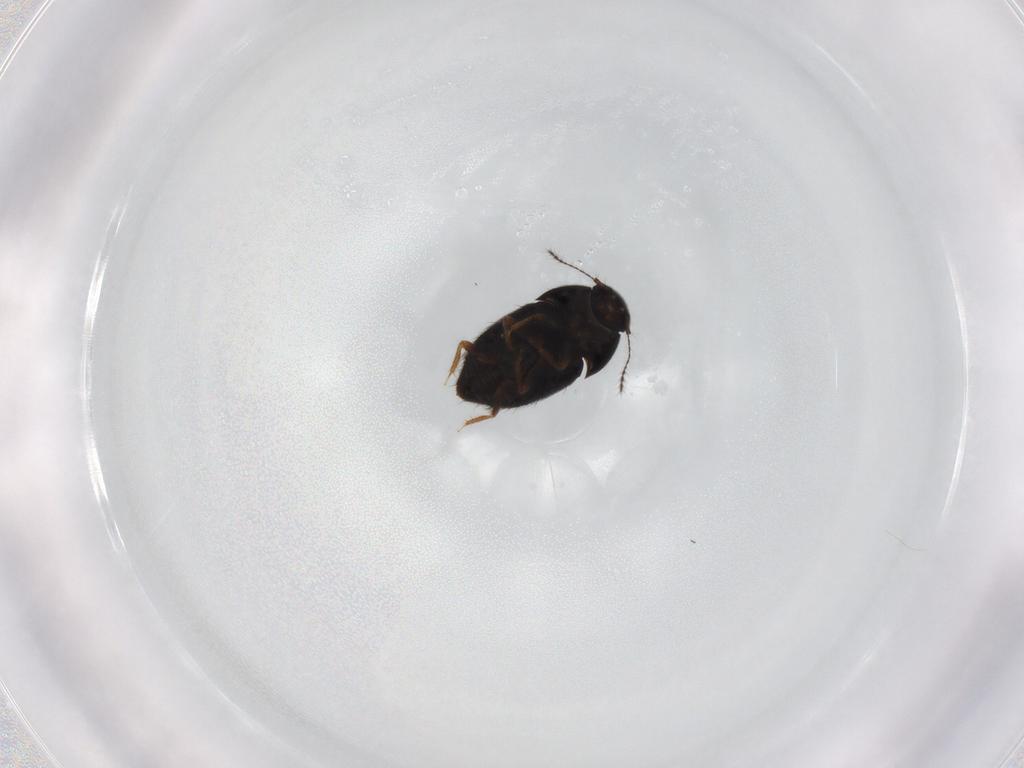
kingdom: Animalia
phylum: Arthropoda
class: Insecta
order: Coleoptera
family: Ptiliidae
